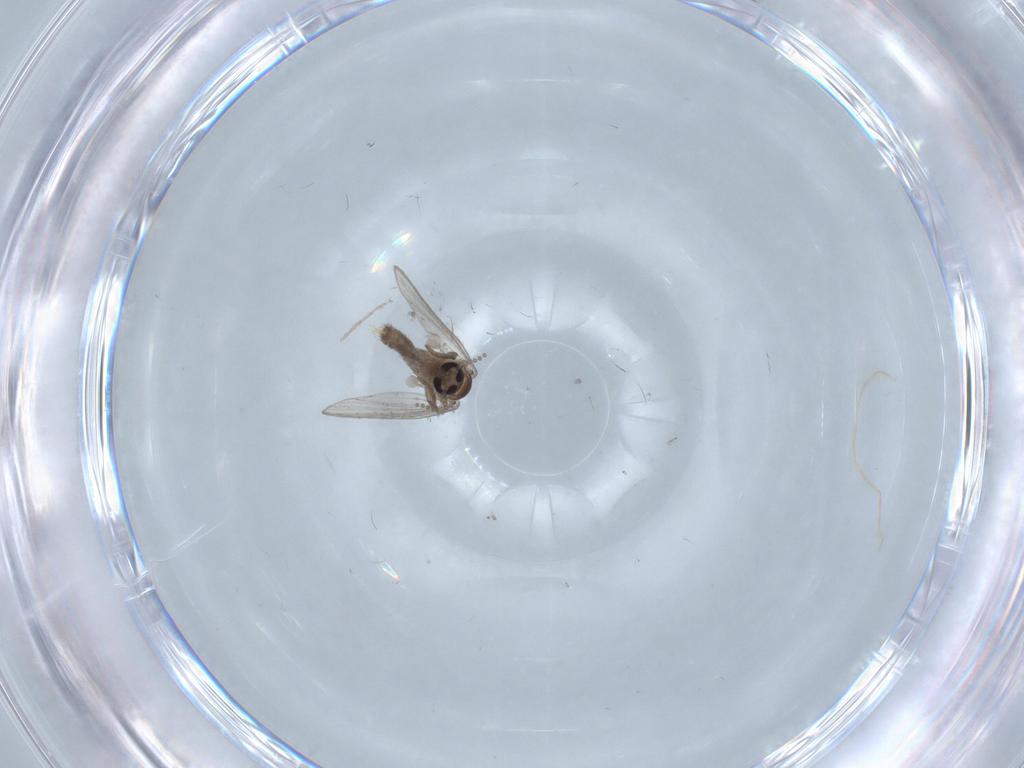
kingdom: Animalia
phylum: Arthropoda
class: Insecta
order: Diptera
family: Psychodidae
